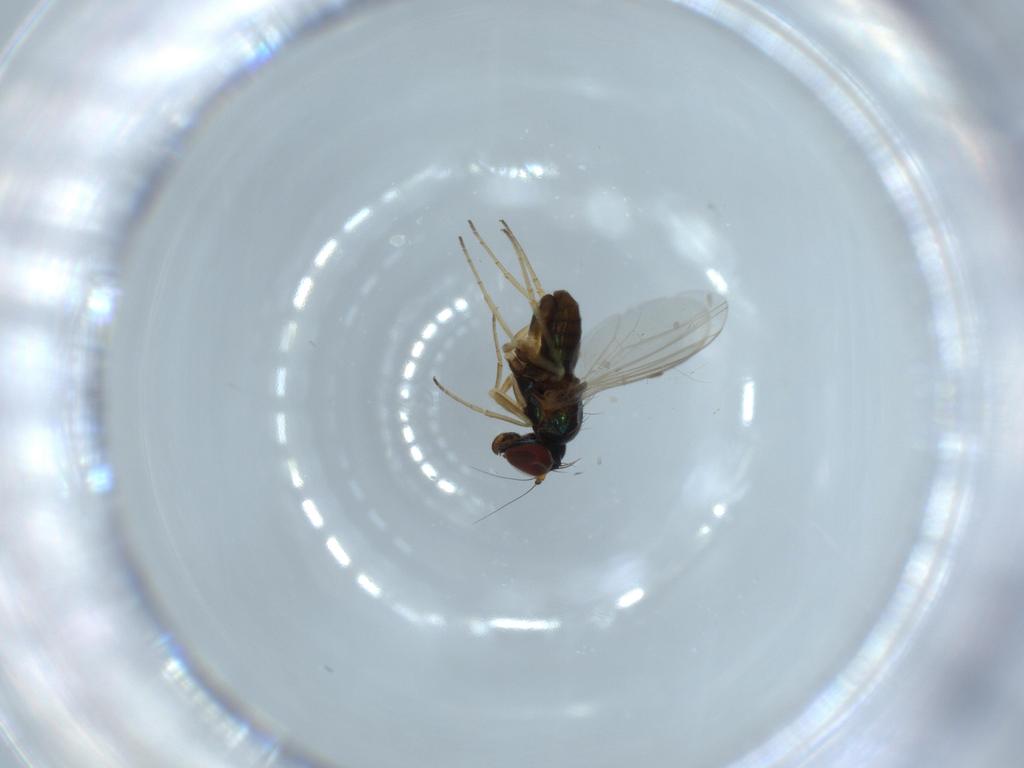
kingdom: Animalia
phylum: Arthropoda
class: Insecta
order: Diptera
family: Dolichopodidae
